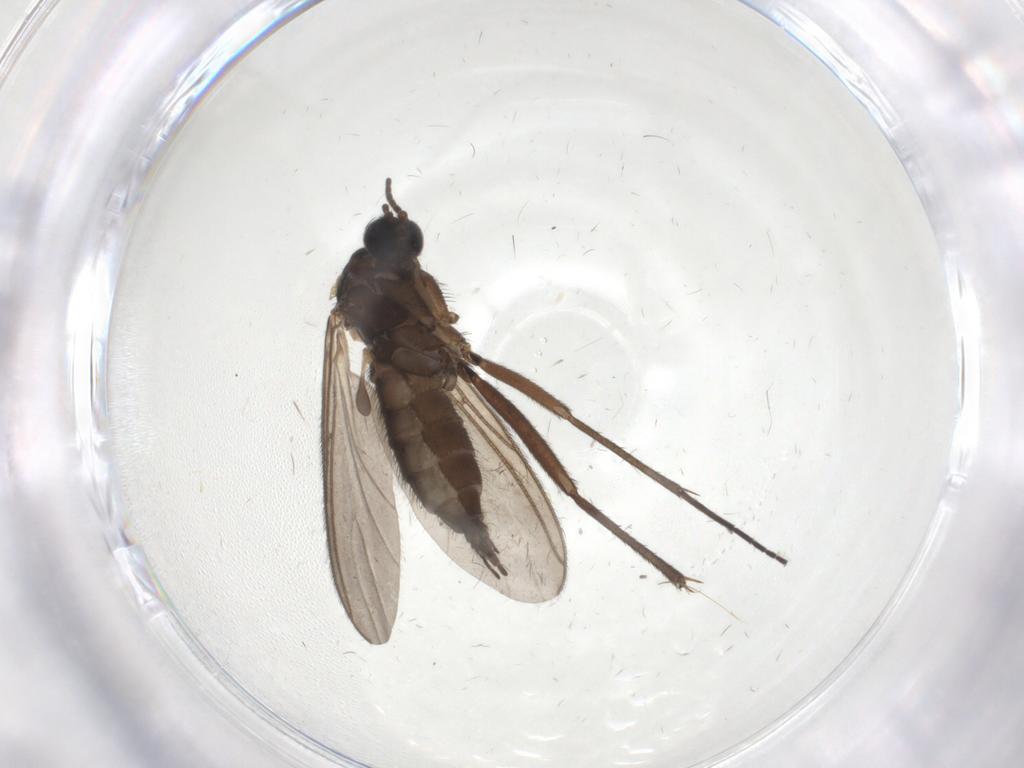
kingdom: Animalia
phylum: Arthropoda
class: Insecta
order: Diptera
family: Sciaridae
